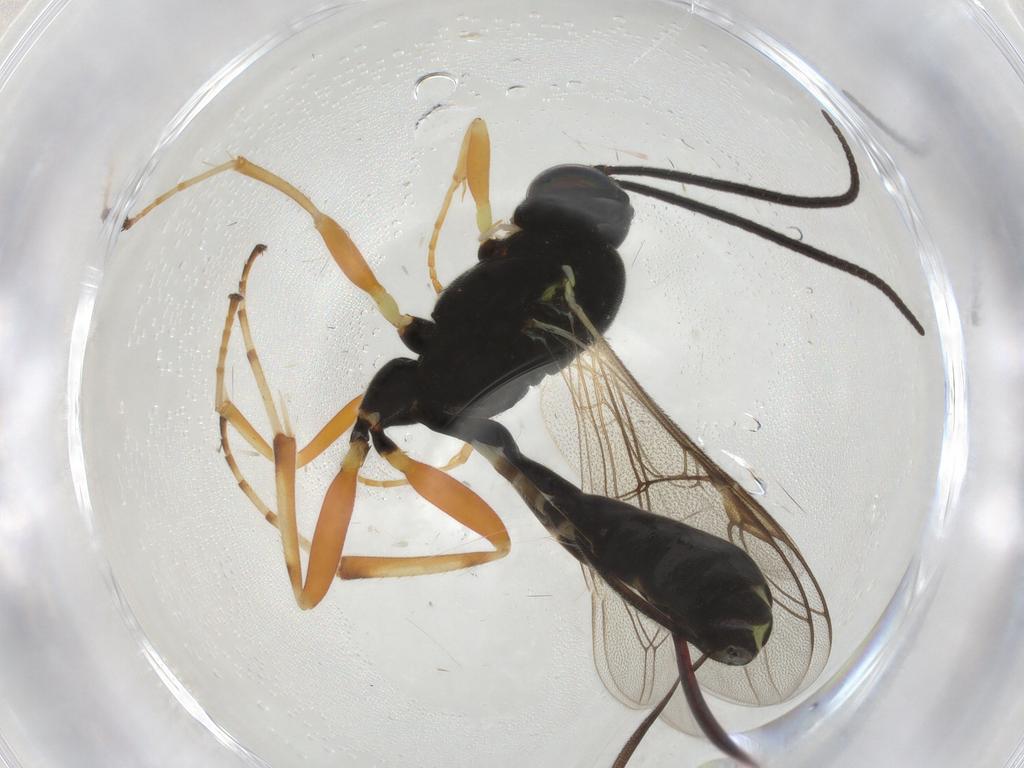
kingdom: Animalia
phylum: Arthropoda
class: Insecta
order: Hymenoptera
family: Ichneumonidae
